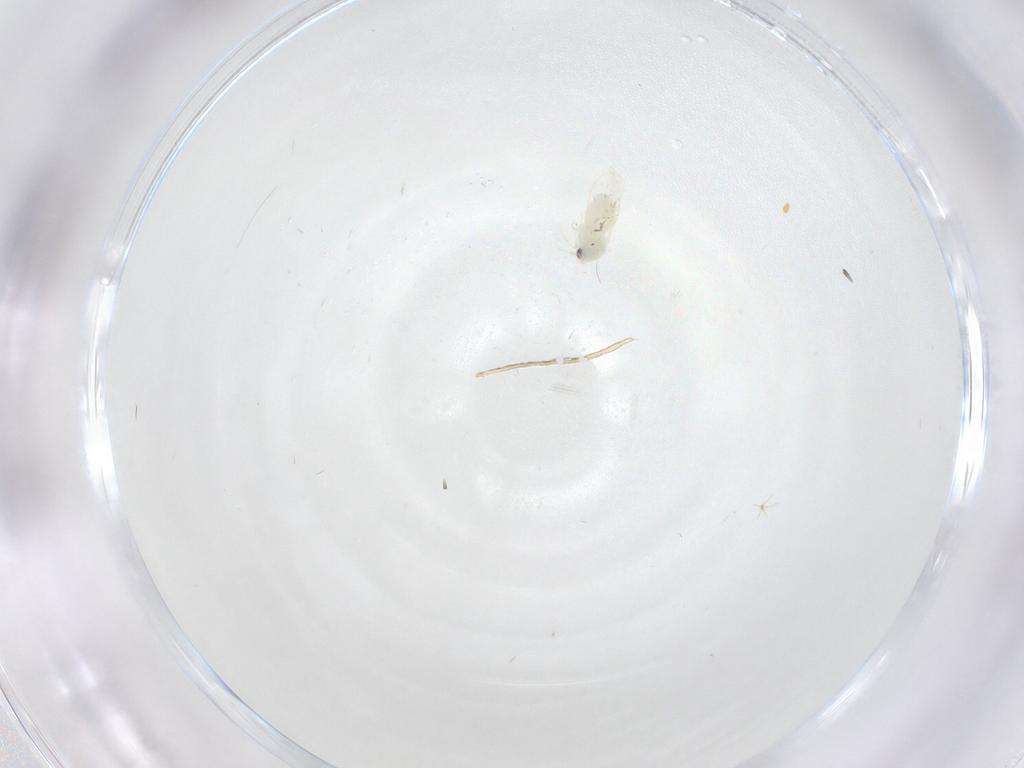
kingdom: Animalia
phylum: Arthropoda
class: Insecta
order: Hymenoptera
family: Formicidae
